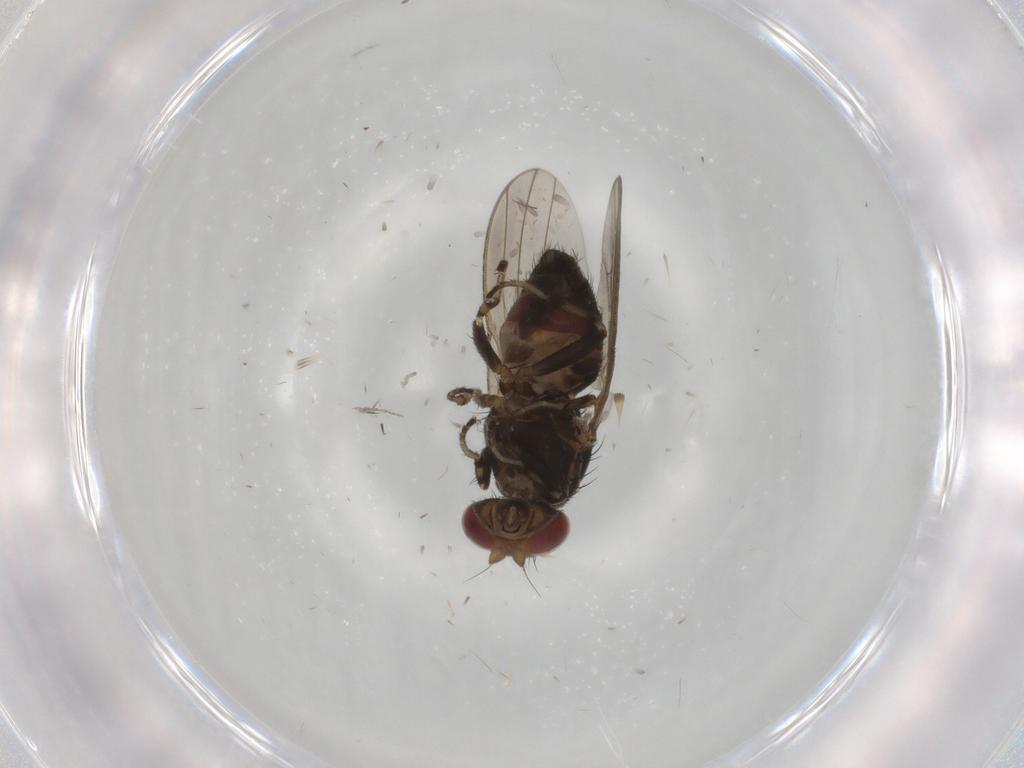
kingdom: Animalia
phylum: Arthropoda
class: Insecta
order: Diptera
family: Heleomyzidae
